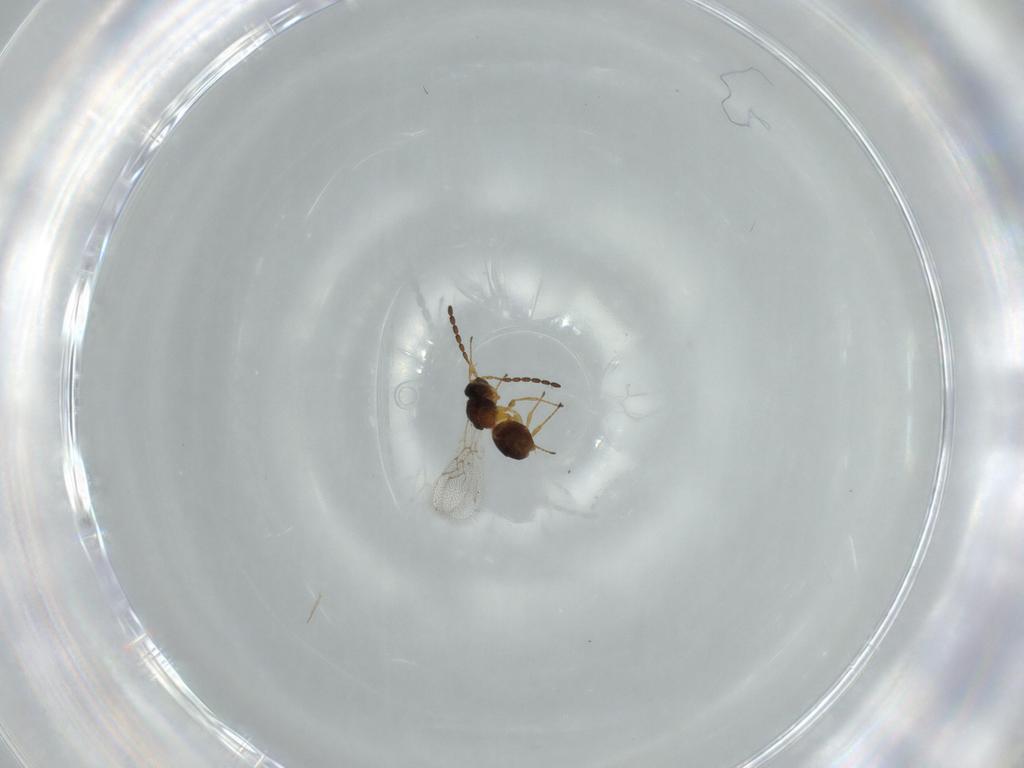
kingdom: Animalia
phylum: Arthropoda
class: Insecta
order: Hymenoptera
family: Figitidae
